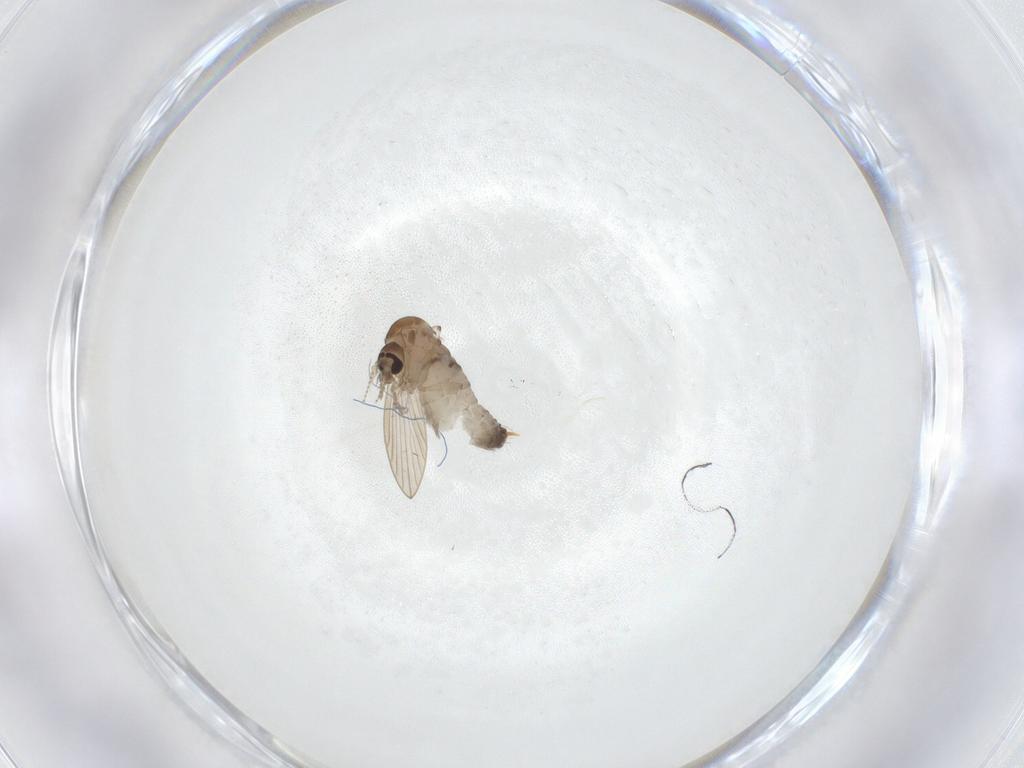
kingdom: Animalia
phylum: Arthropoda
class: Insecta
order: Diptera
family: Psychodidae
